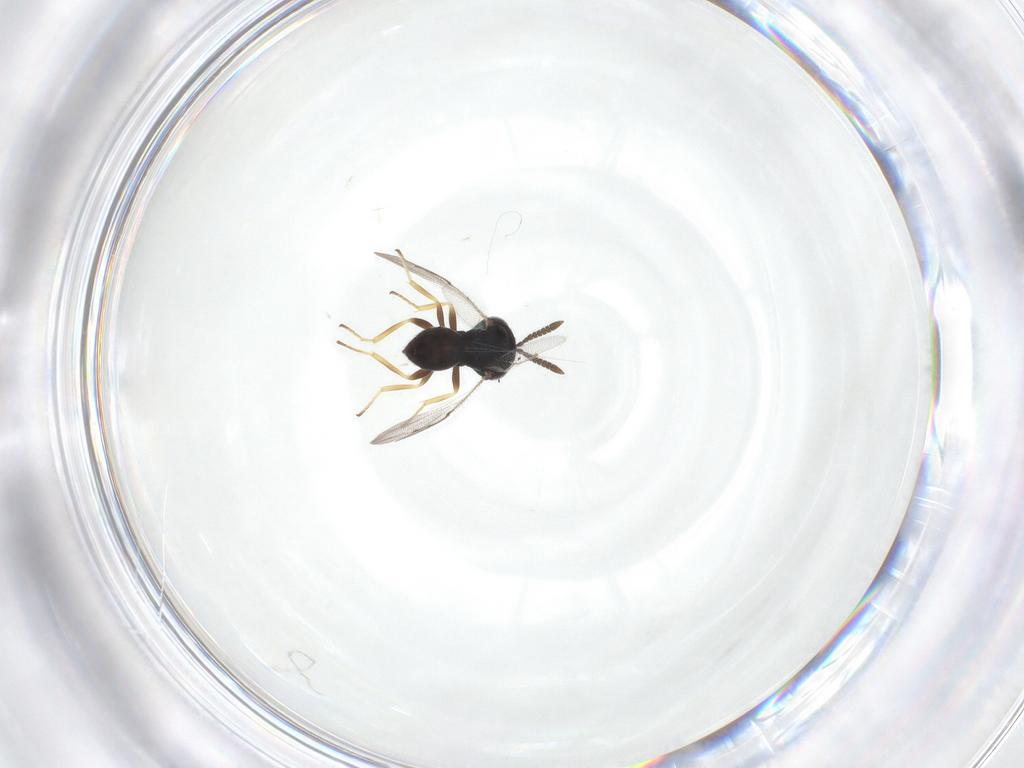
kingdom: Animalia
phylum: Arthropoda
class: Insecta
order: Hymenoptera
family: Pteromalidae
